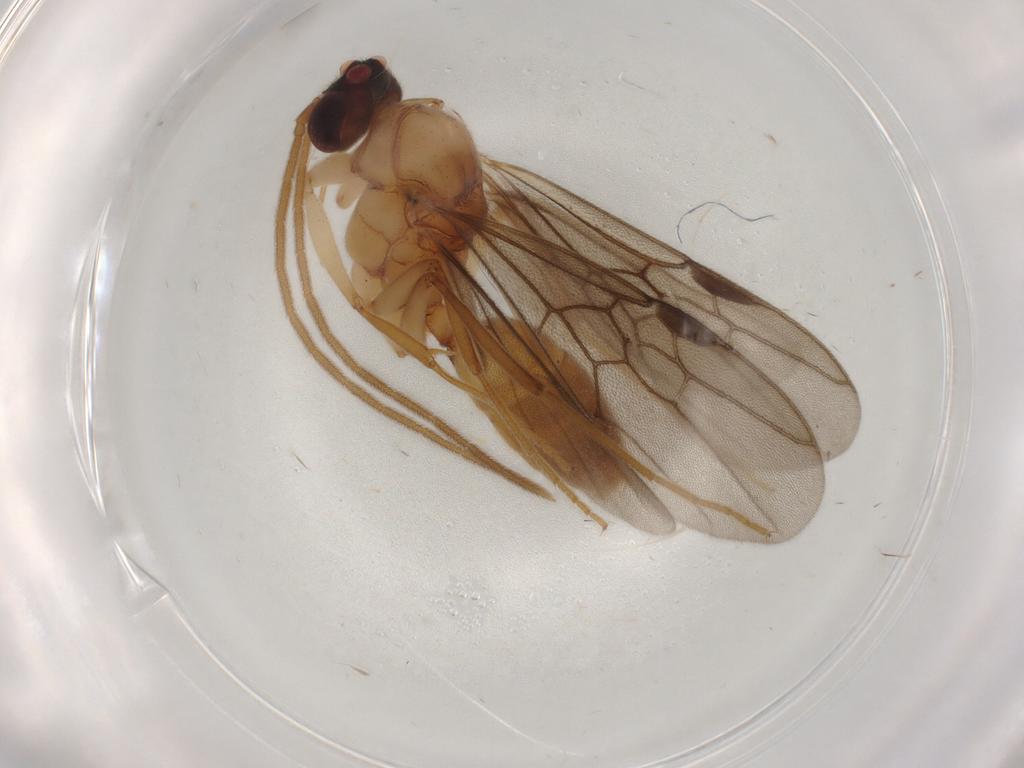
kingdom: Animalia
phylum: Arthropoda
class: Insecta
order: Hymenoptera
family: Formicidae
